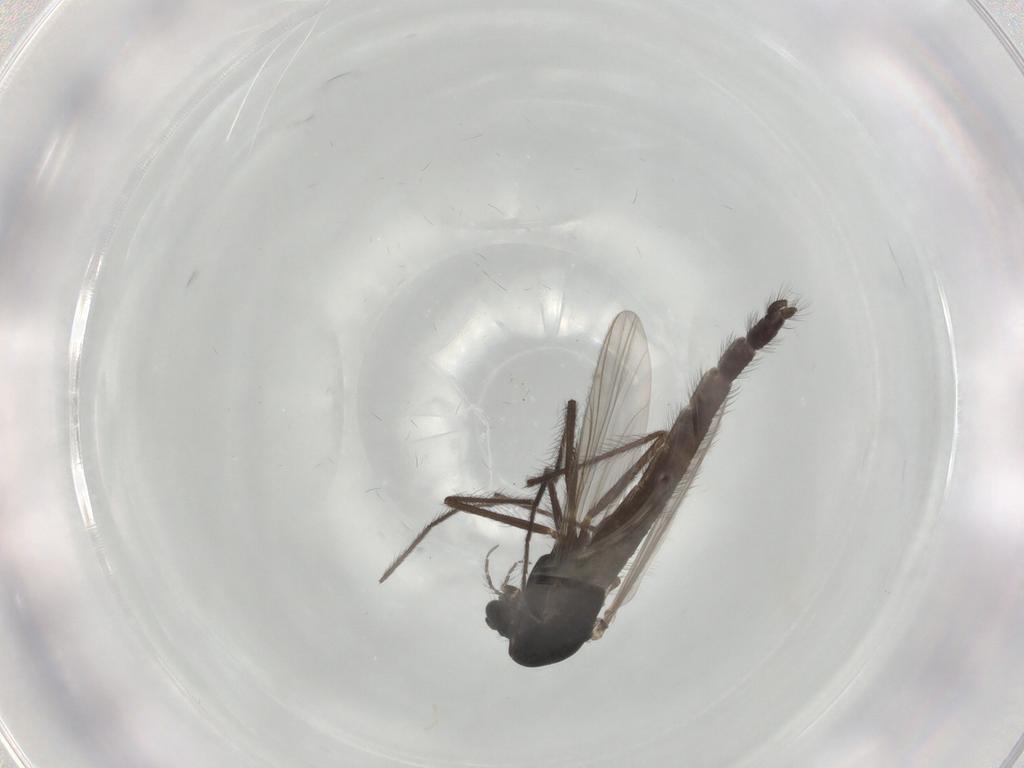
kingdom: Animalia
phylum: Arthropoda
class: Insecta
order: Diptera
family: Chironomidae
